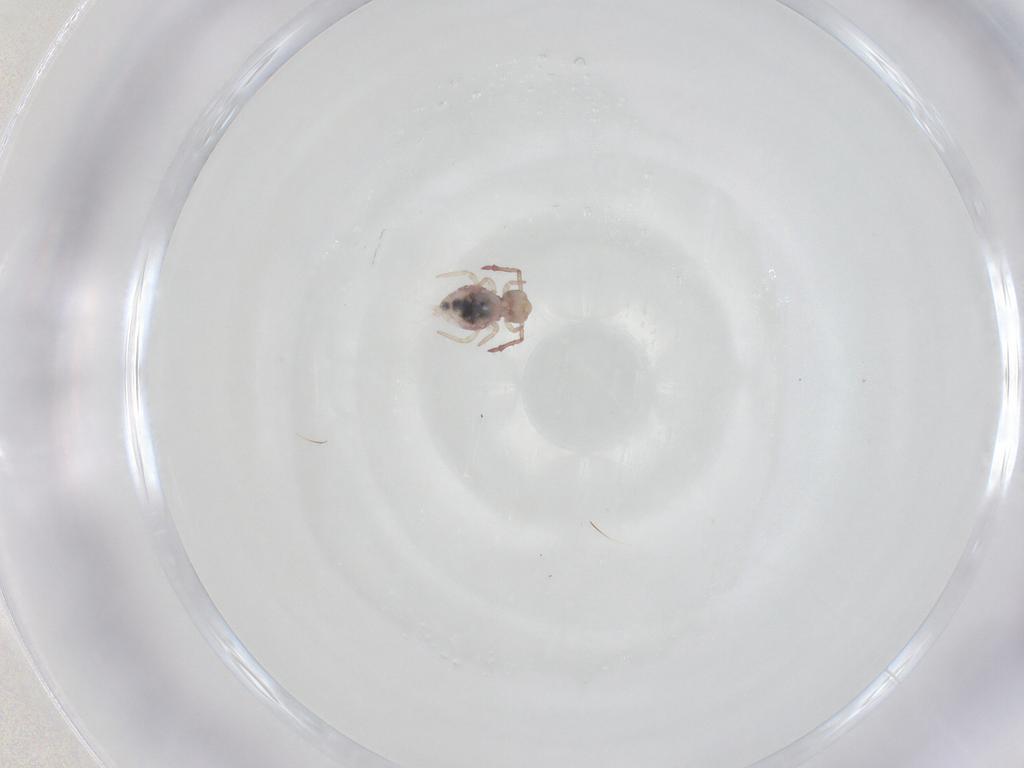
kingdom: Animalia
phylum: Arthropoda
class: Collembola
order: Symphypleona
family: Dicyrtomidae
